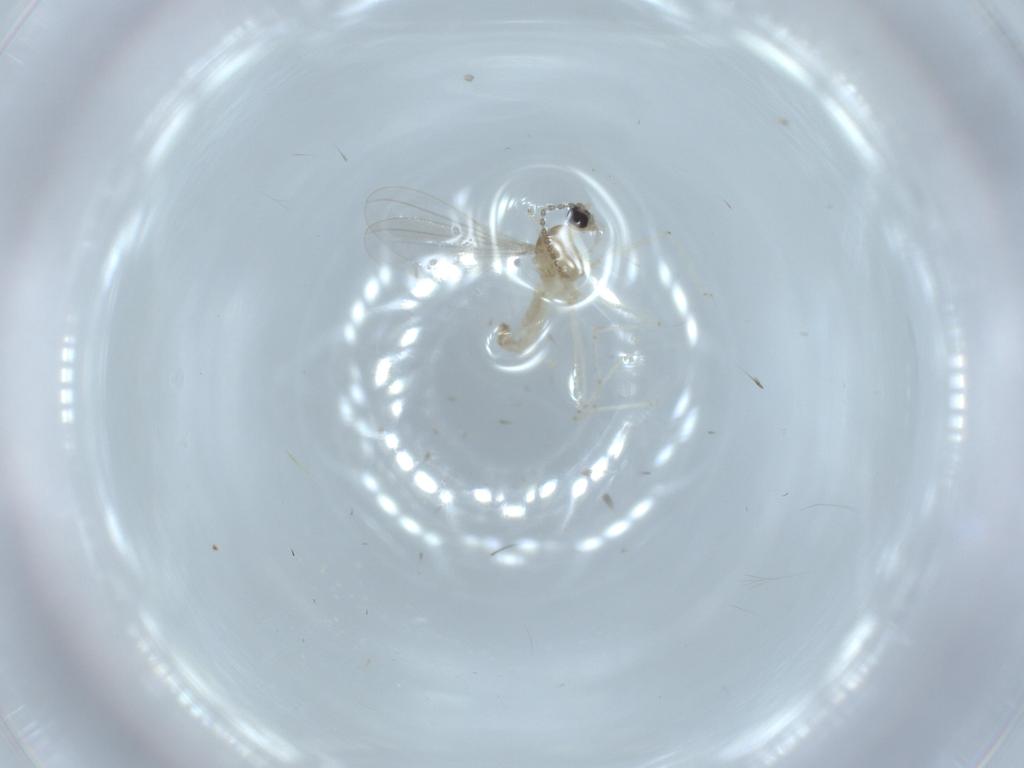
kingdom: Animalia
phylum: Arthropoda
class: Insecta
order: Diptera
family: Cecidomyiidae
